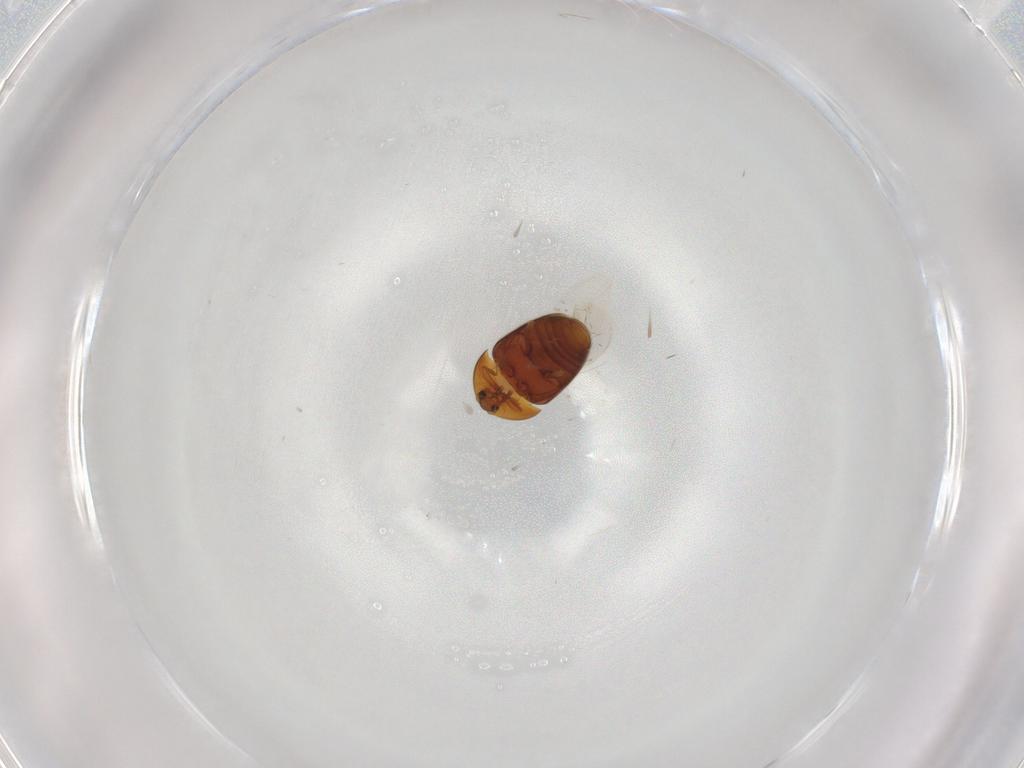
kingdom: Animalia
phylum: Arthropoda
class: Insecta
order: Coleoptera
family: Corylophidae
